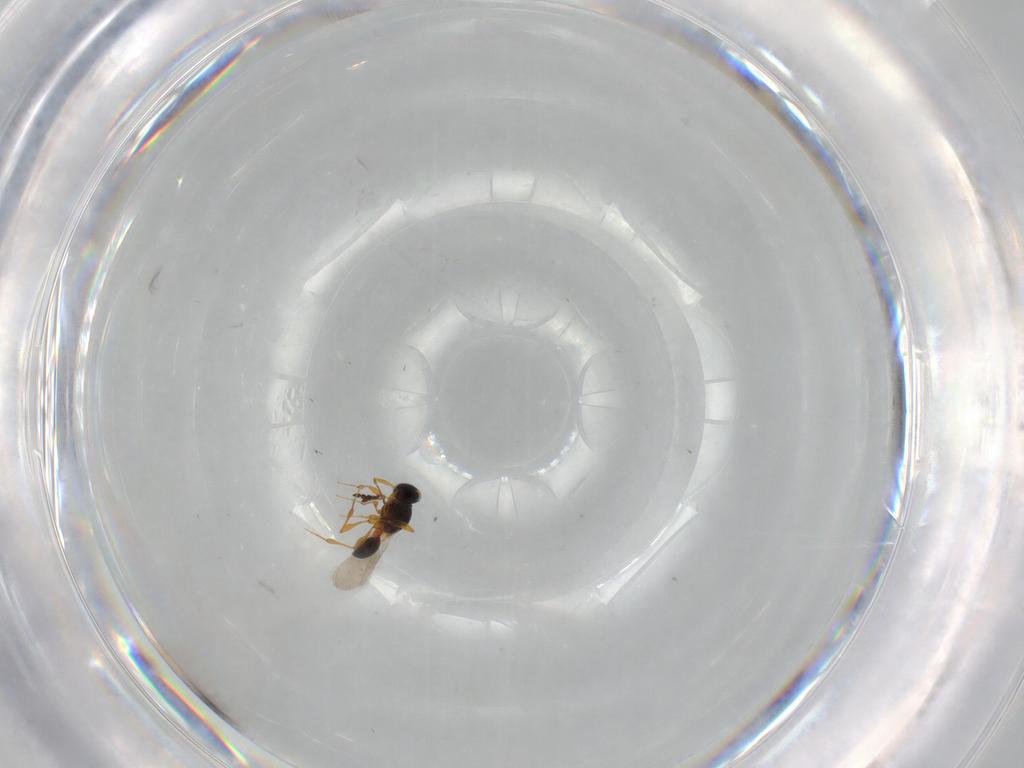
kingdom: Animalia
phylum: Arthropoda
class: Insecta
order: Hymenoptera
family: Platygastridae
